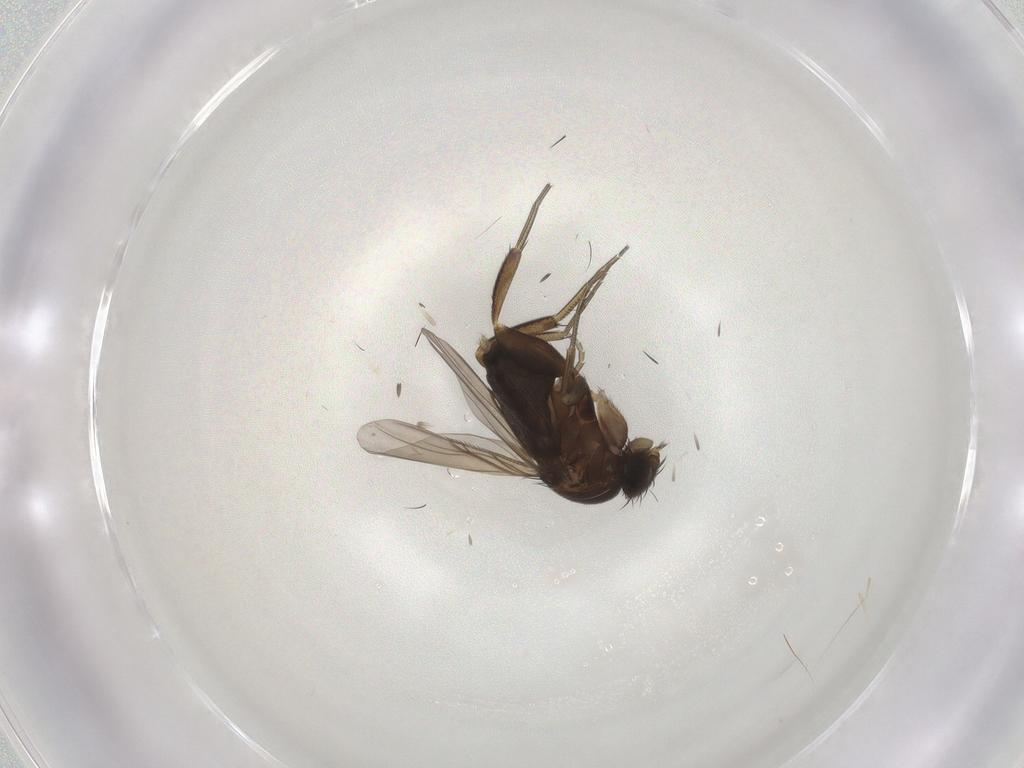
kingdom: Animalia
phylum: Arthropoda
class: Insecta
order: Diptera
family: Phoridae
